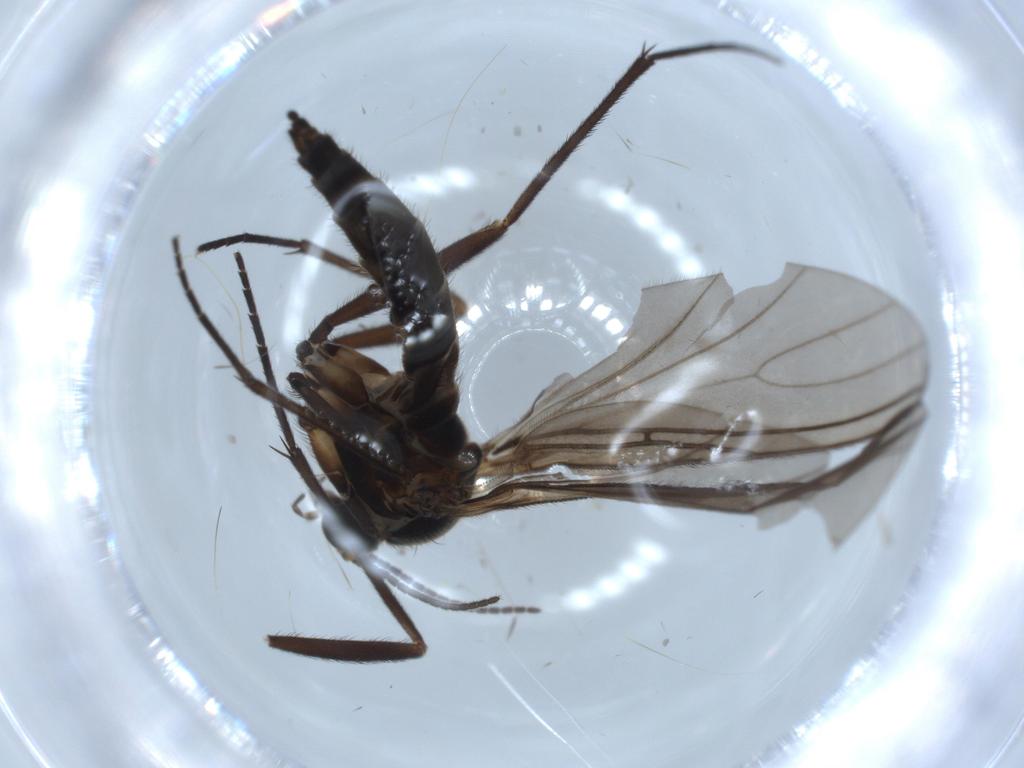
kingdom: Animalia
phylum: Arthropoda
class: Insecta
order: Diptera
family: Sciaridae
